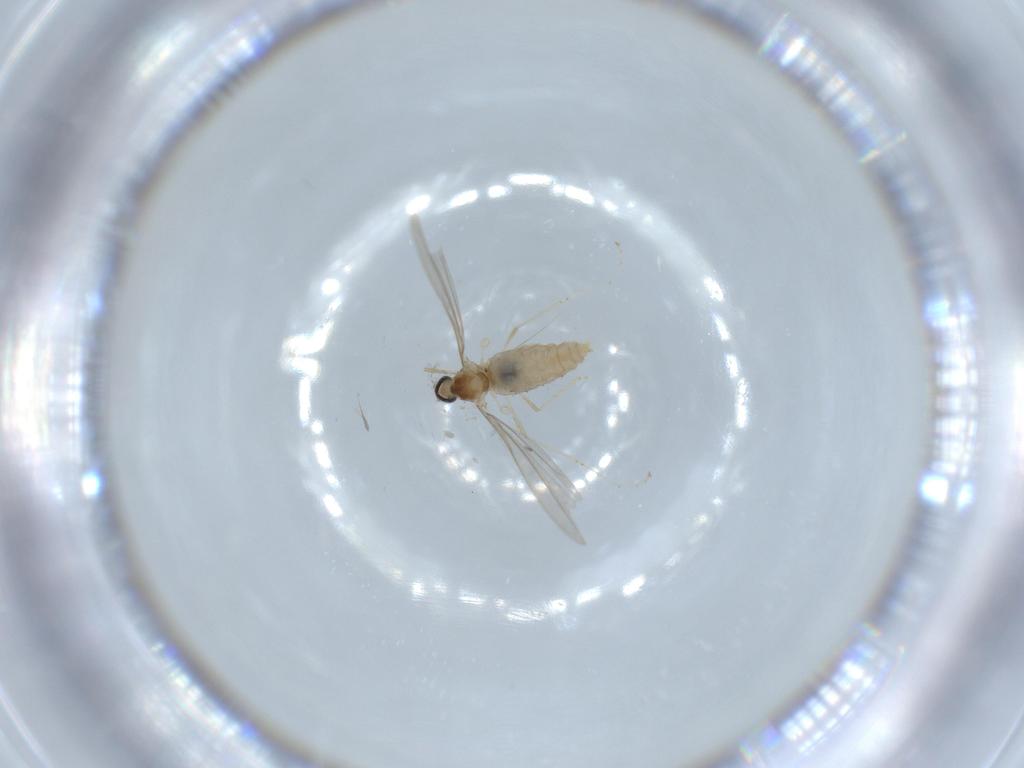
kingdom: Animalia
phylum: Arthropoda
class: Insecta
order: Diptera
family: Cecidomyiidae
